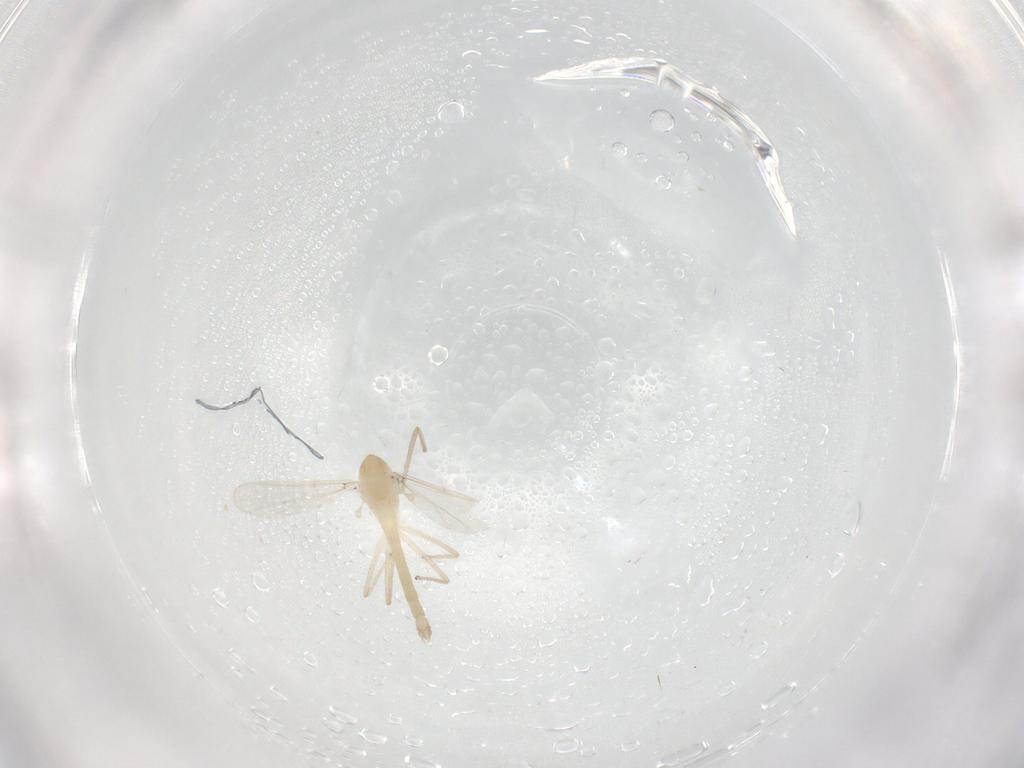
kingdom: Animalia
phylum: Arthropoda
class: Insecta
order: Diptera
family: Chironomidae
